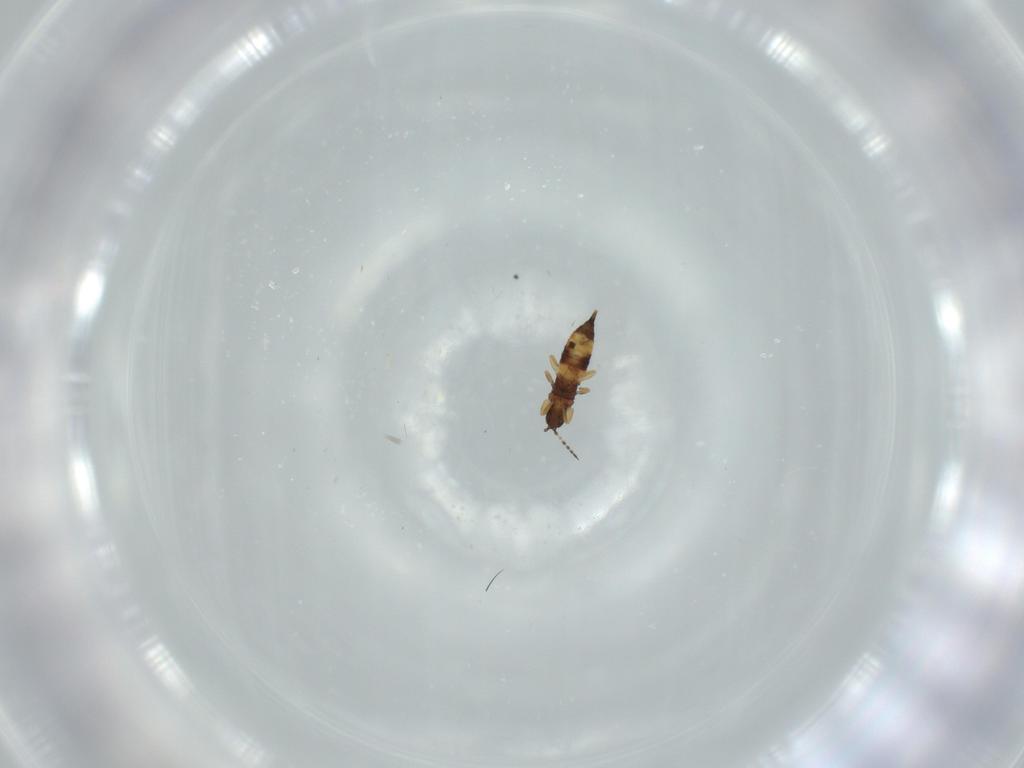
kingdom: Animalia
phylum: Arthropoda
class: Insecta
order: Thysanoptera
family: Phlaeothripidae
